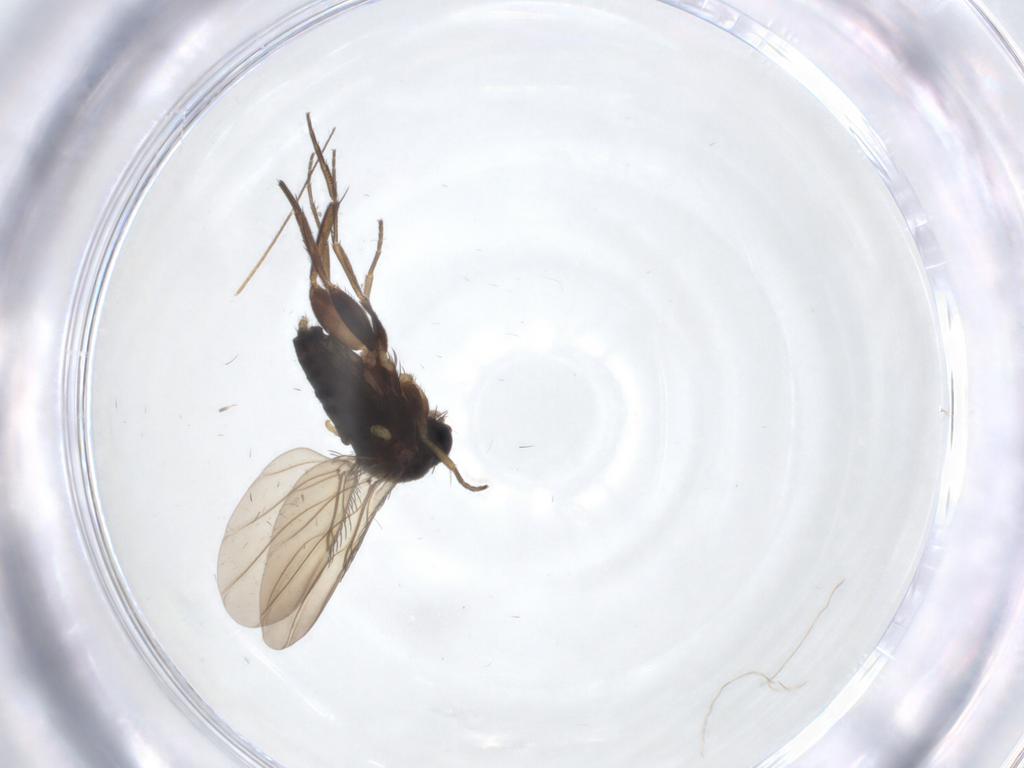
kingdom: Animalia
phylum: Arthropoda
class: Insecta
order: Diptera
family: Phoridae
